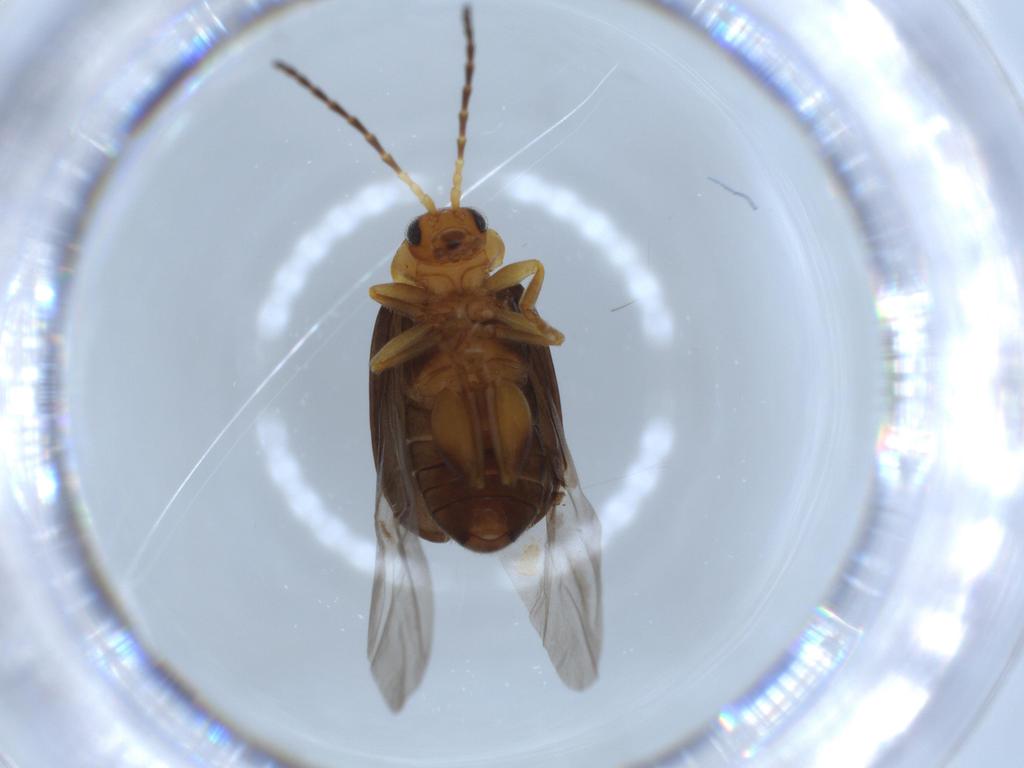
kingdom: Animalia
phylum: Arthropoda
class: Insecta
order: Coleoptera
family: Chrysomelidae
